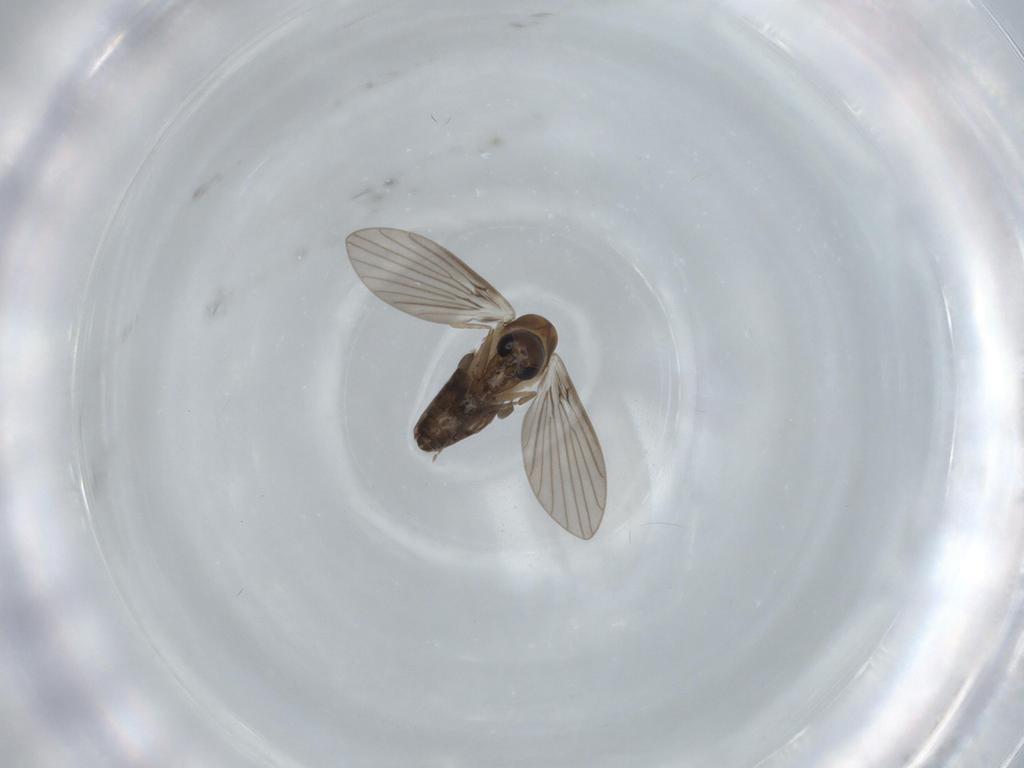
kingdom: Animalia
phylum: Arthropoda
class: Insecta
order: Diptera
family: Psychodidae
